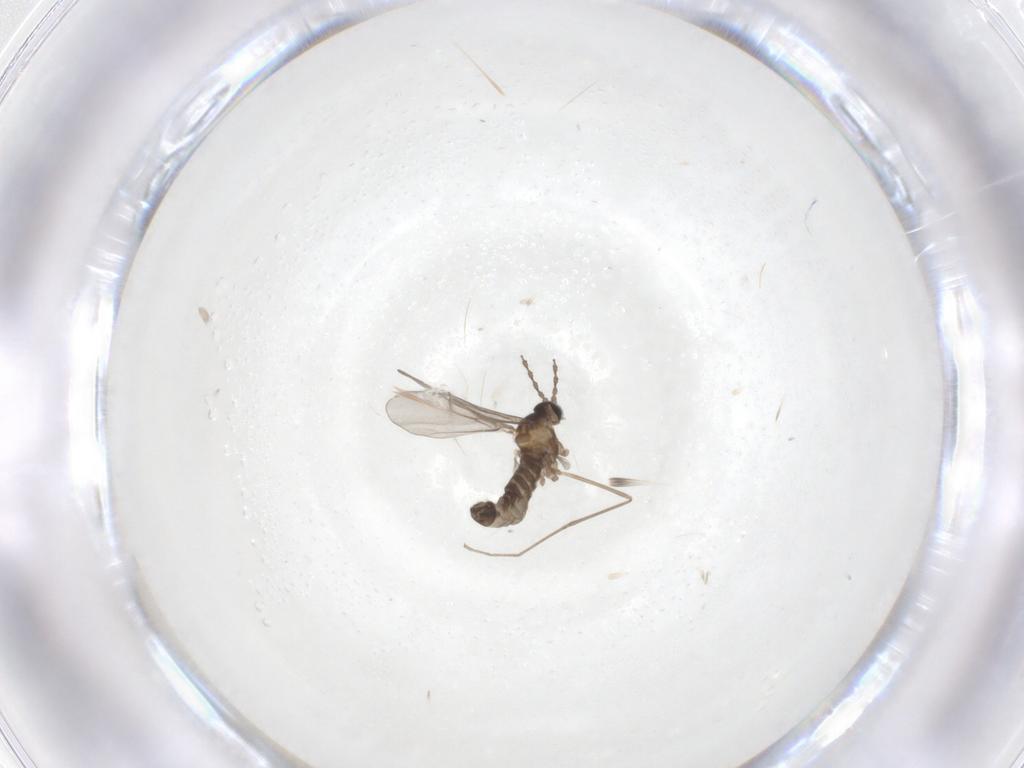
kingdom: Animalia
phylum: Arthropoda
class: Insecta
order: Diptera
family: Cecidomyiidae
